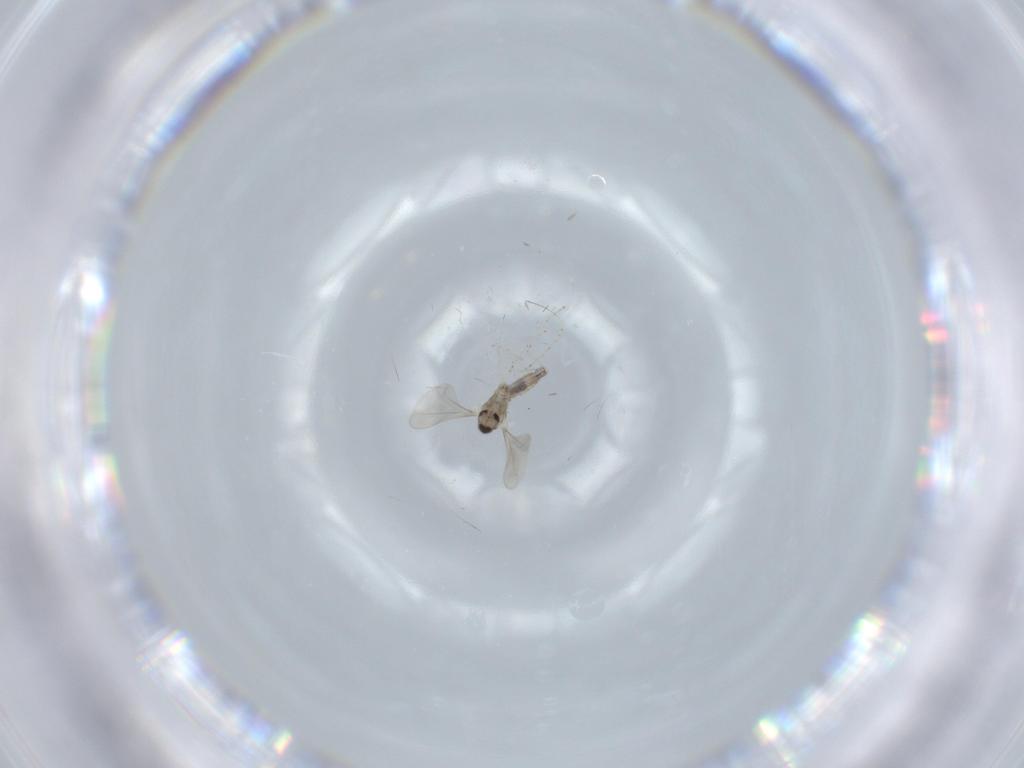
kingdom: Animalia
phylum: Arthropoda
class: Insecta
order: Diptera
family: Cecidomyiidae
